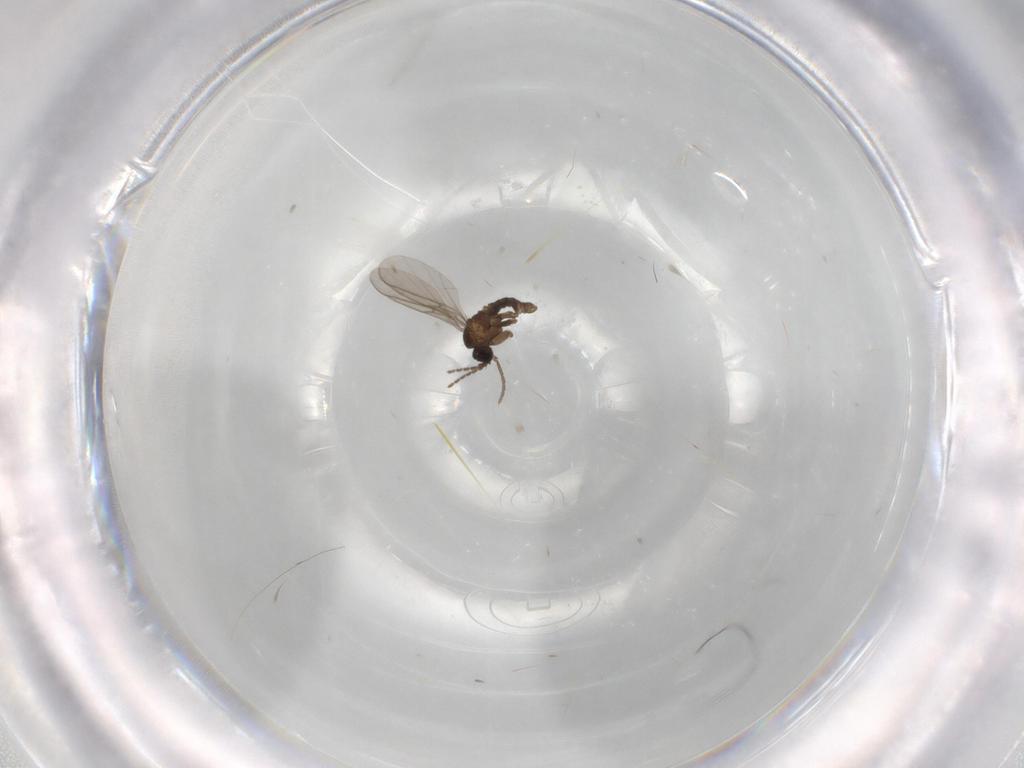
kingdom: Animalia
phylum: Arthropoda
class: Insecta
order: Diptera
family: Sciaridae
